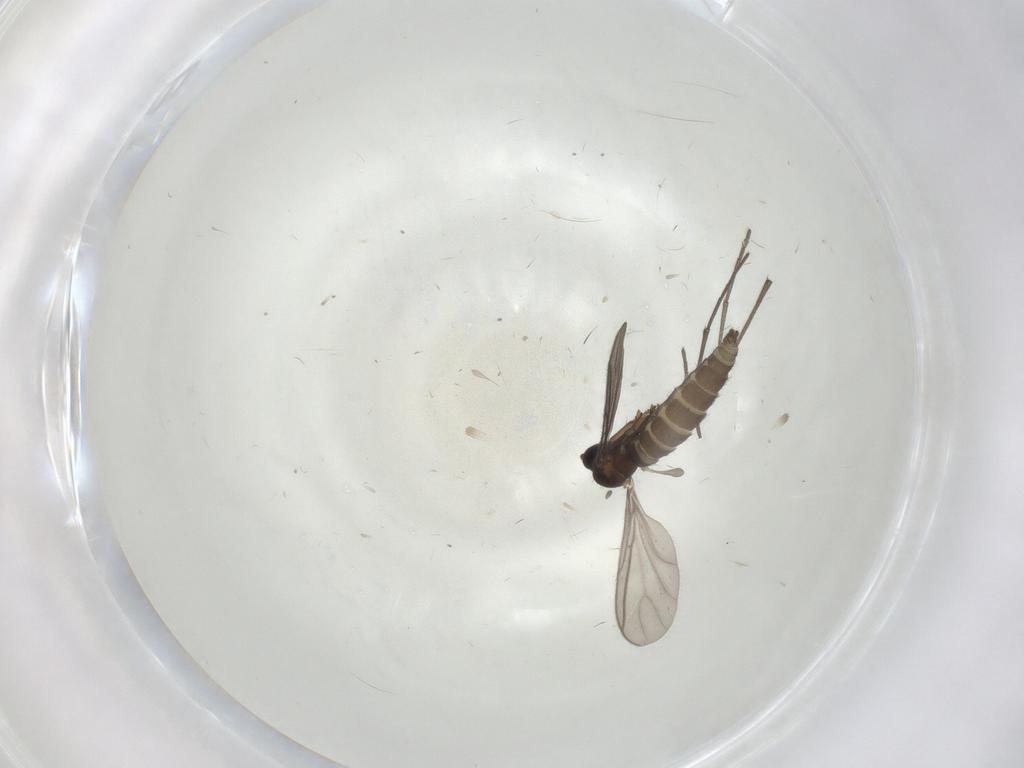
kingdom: Animalia
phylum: Arthropoda
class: Insecta
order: Diptera
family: Sciaridae
